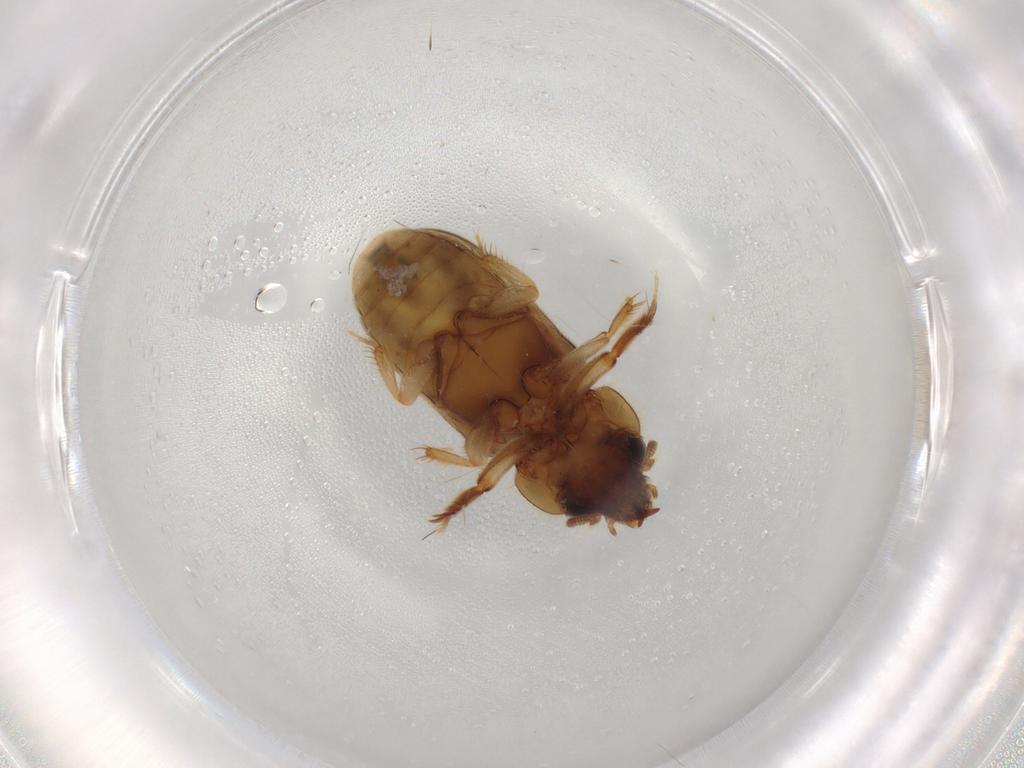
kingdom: Animalia
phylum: Arthropoda
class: Insecta
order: Coleoptera
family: Heteroceridae
